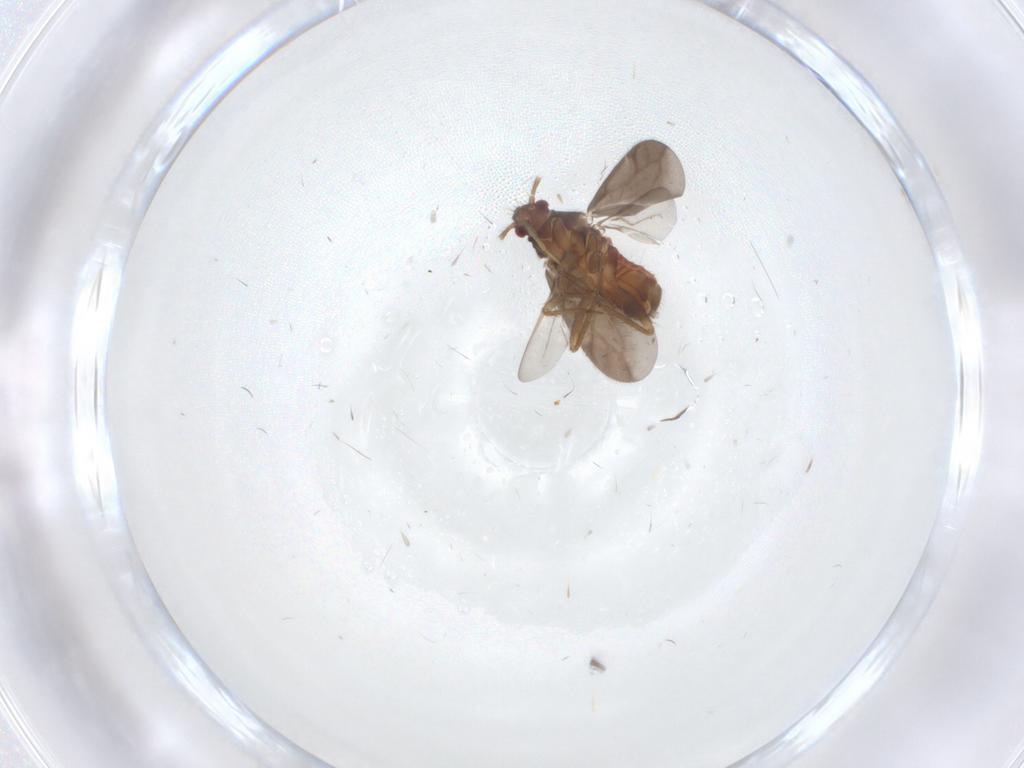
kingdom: Animalia
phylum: Arthropoda
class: Insecta
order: Hemiptera
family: Ceratocombidae
